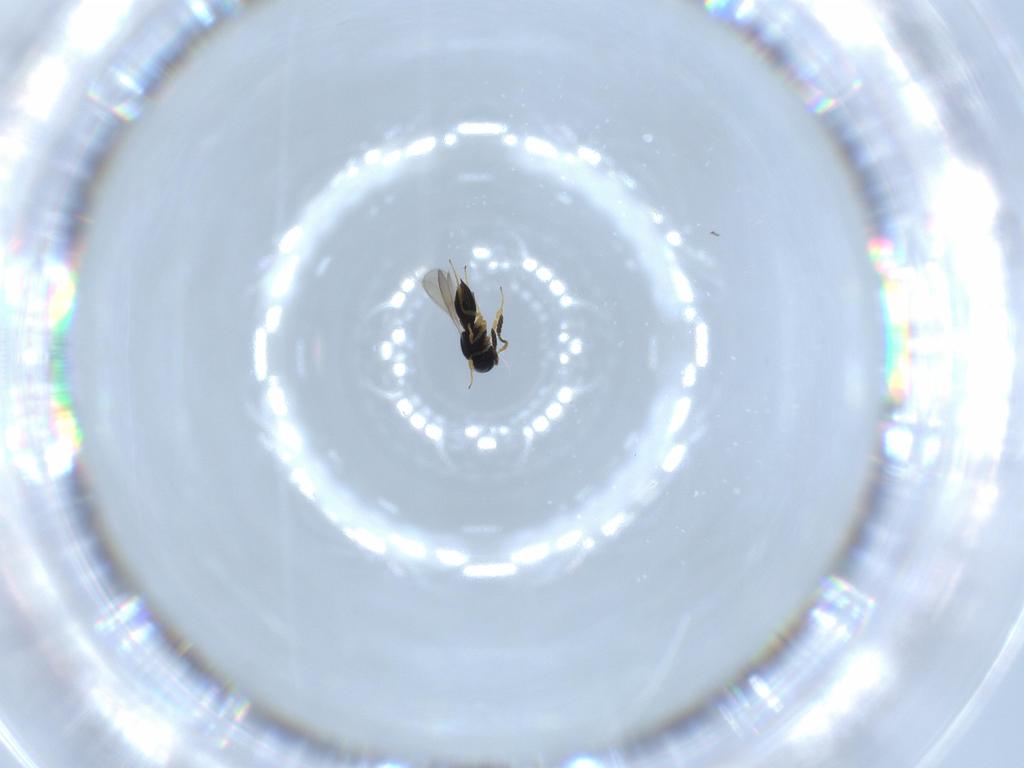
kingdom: Animalia
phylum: Arthropoda
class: Insecta
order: Hymenoptera
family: Scelionidae
